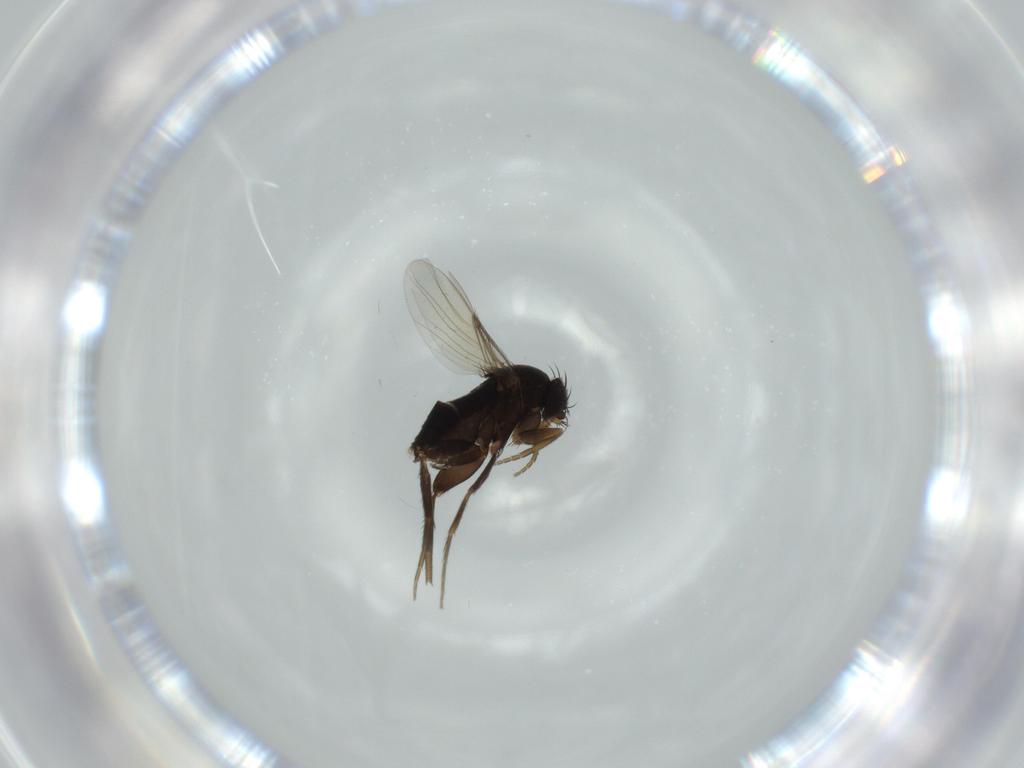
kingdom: Animalia
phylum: Arthropoda
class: Insecta
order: Diptera
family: Phoridae
